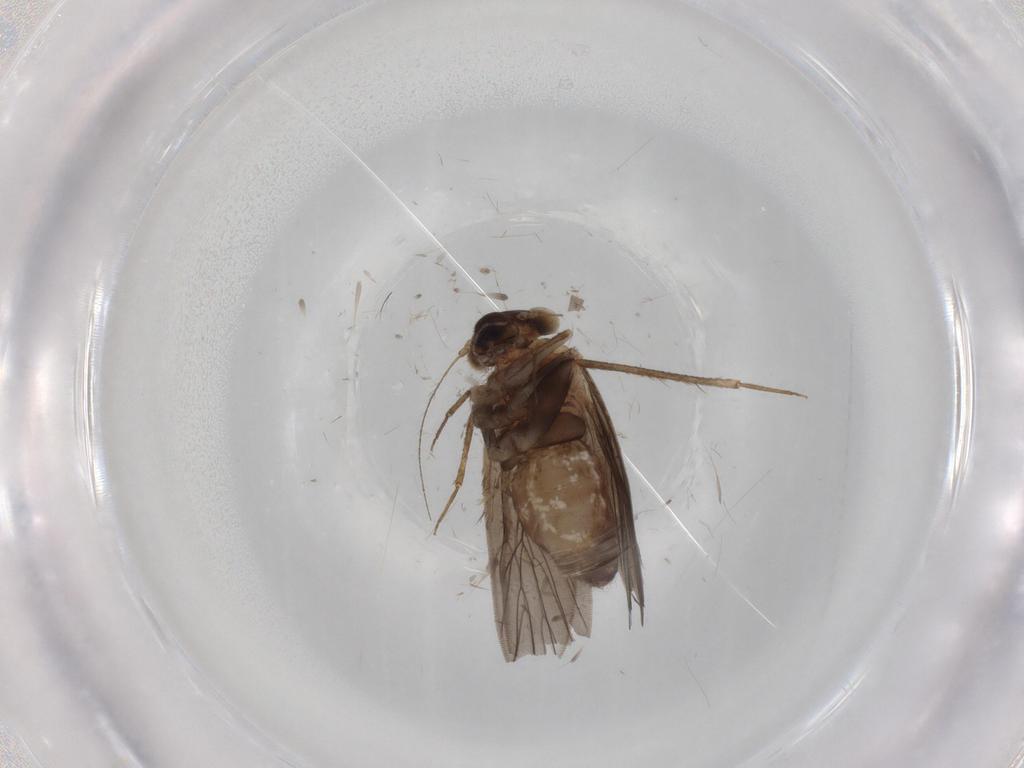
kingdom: Animalia
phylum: Arthropoda
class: Insecta
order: Psocodea
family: Lepidopsocidae
